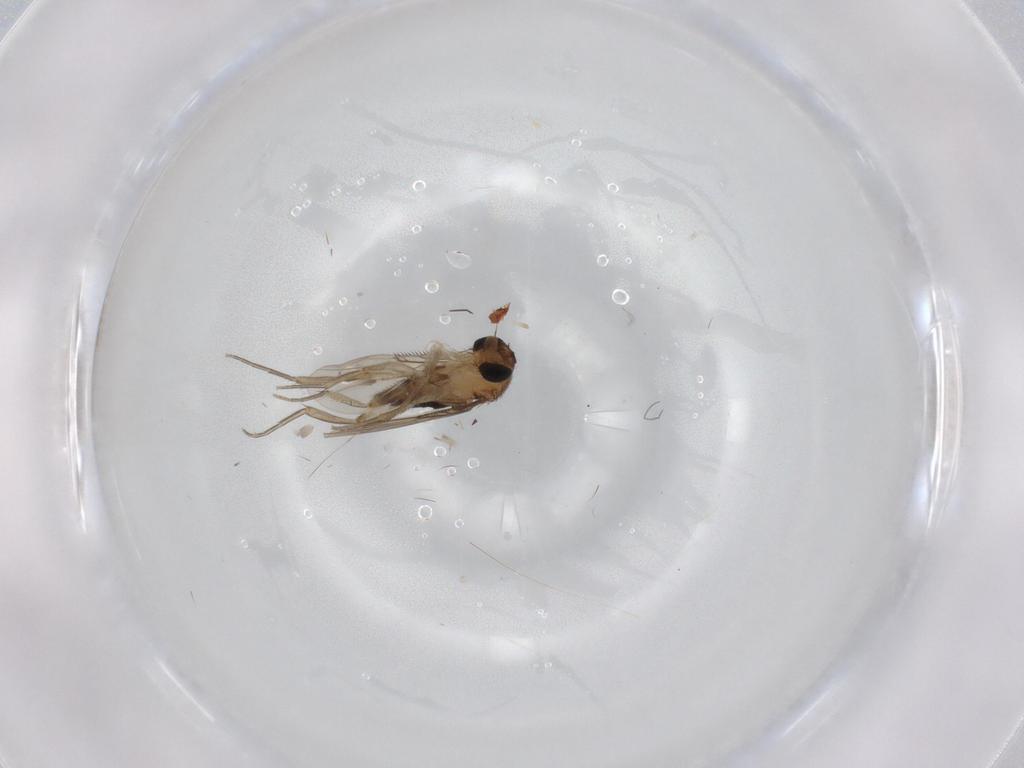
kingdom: Animalia
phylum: Arthropoda
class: Insecta
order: Diptera
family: Phoridae
